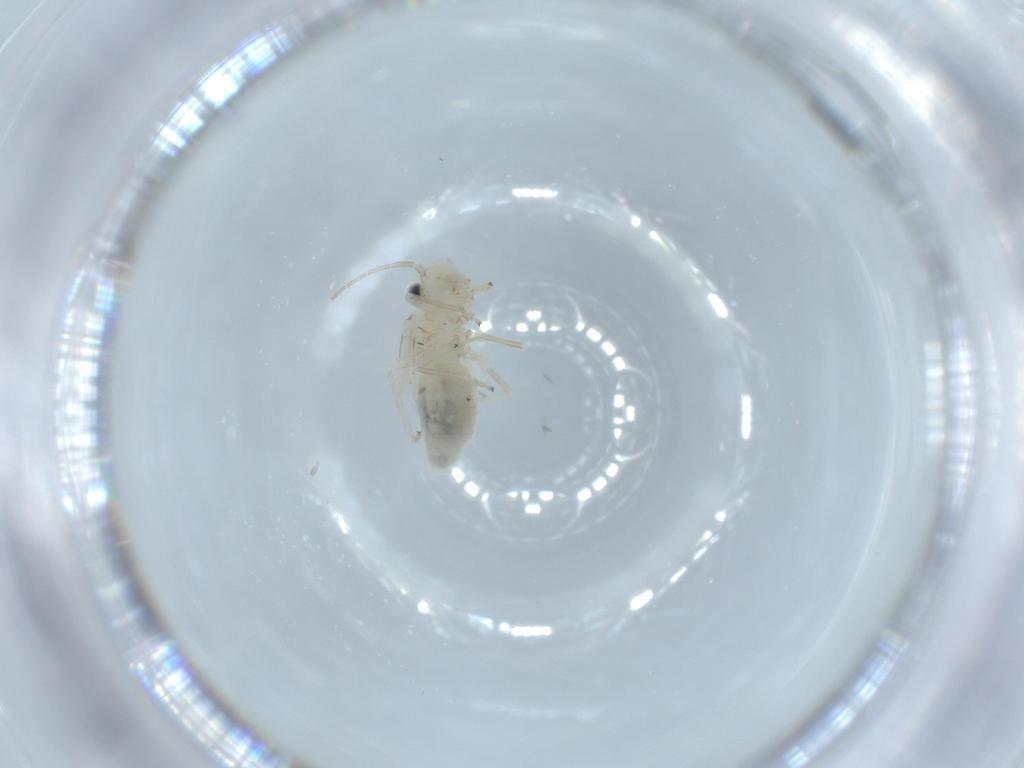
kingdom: Animalia
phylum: Arthropoda
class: Insecta
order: Psocodea
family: Caeciliusidae
